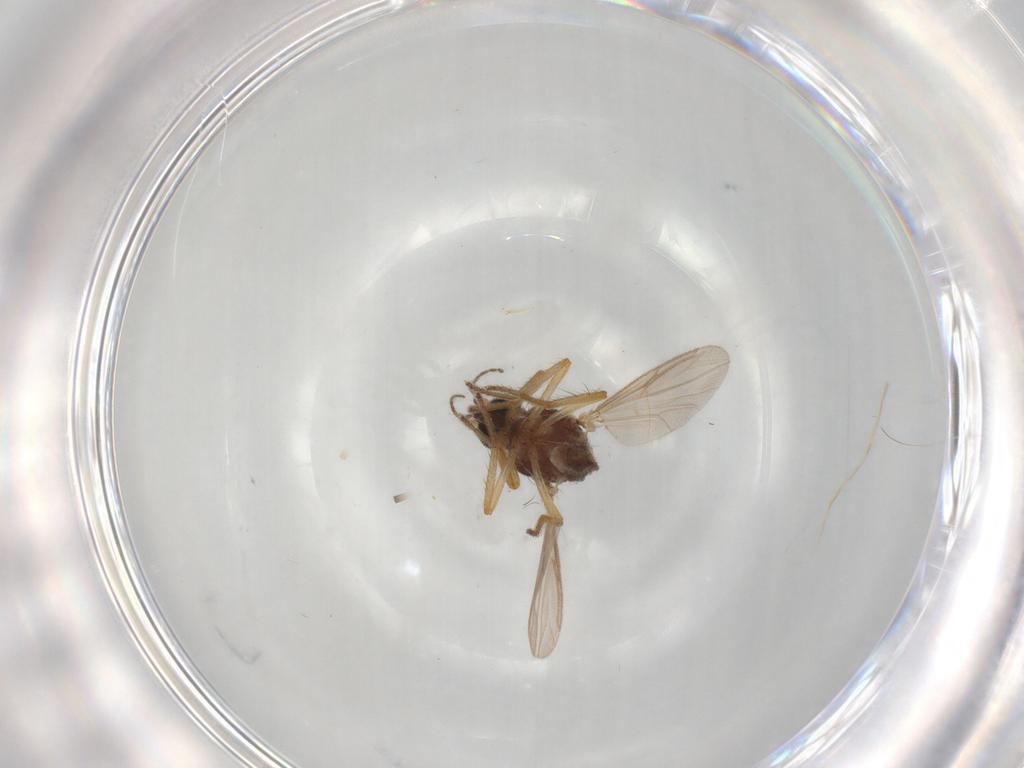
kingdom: Animalia
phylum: Arthropoda
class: Insecta
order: Diptera
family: Ceratopogonidae
